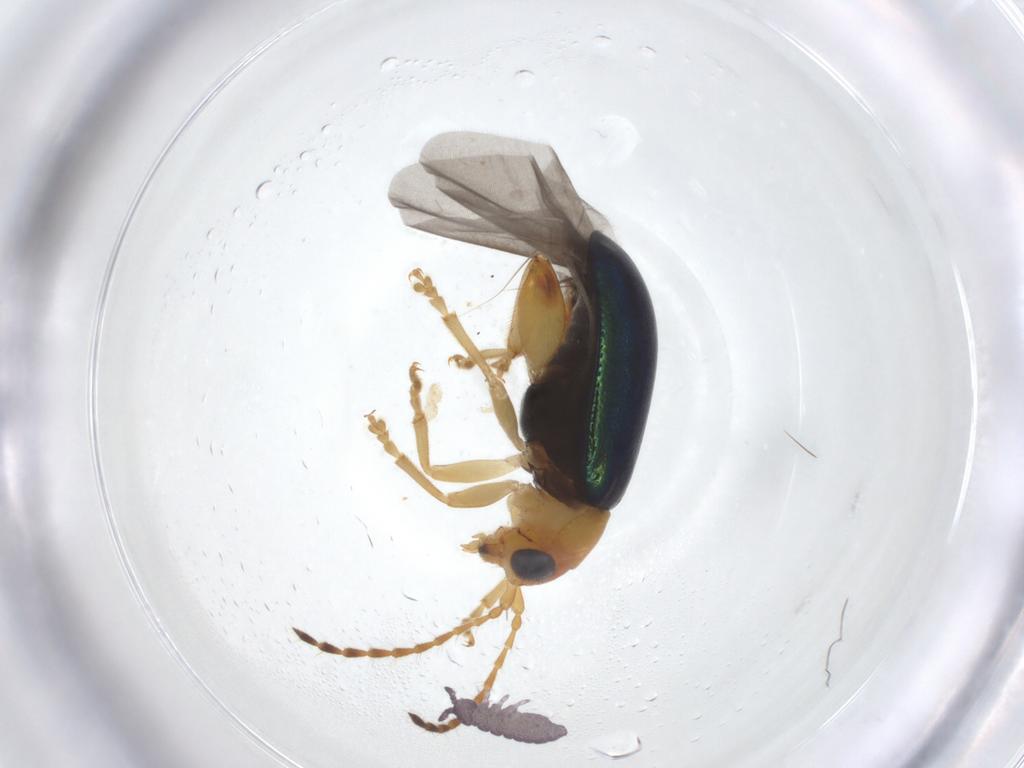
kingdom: Animalia
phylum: Arthropoda
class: Insecta
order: Coleoptera
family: Chrysomelidae
